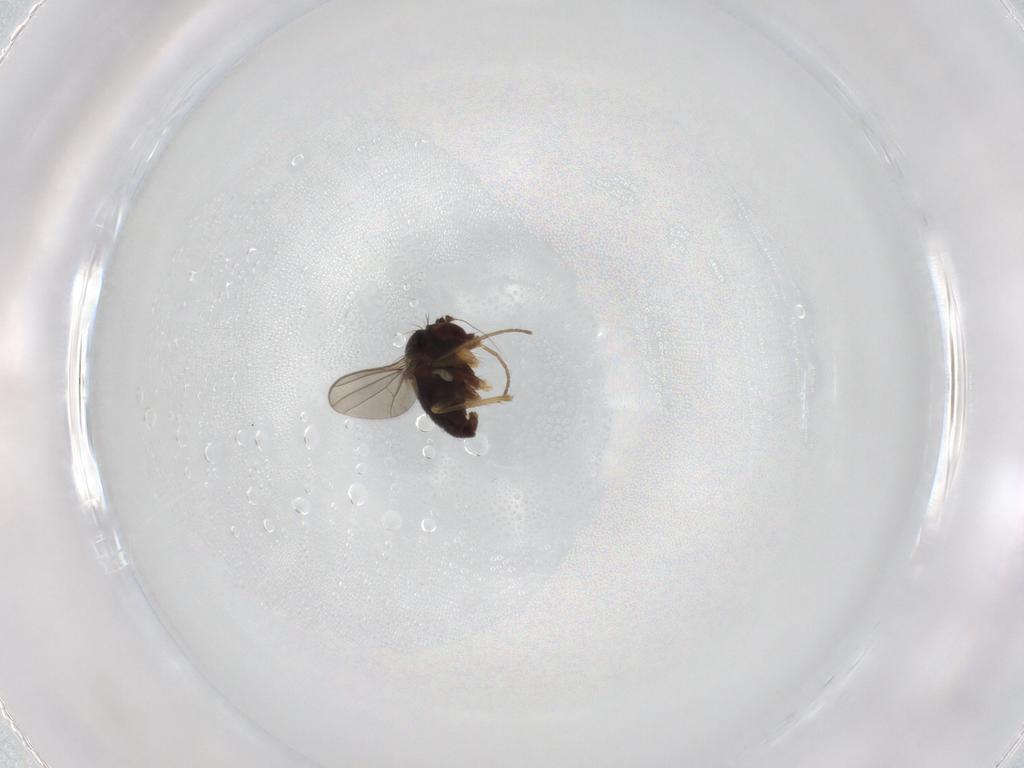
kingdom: Animalia
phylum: Arthropoda
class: Insecta
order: Diptera
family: Dolichopodidae
